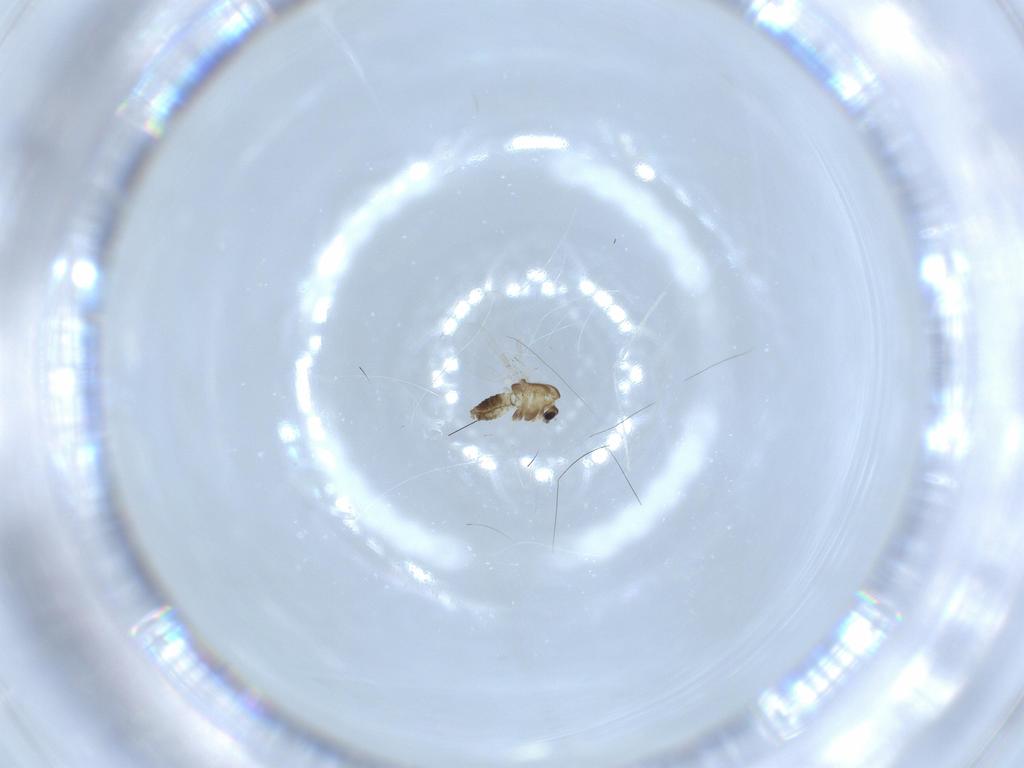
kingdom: Animalia
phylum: Arthropoda
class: Insecta
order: Diptera
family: Chironomidae
